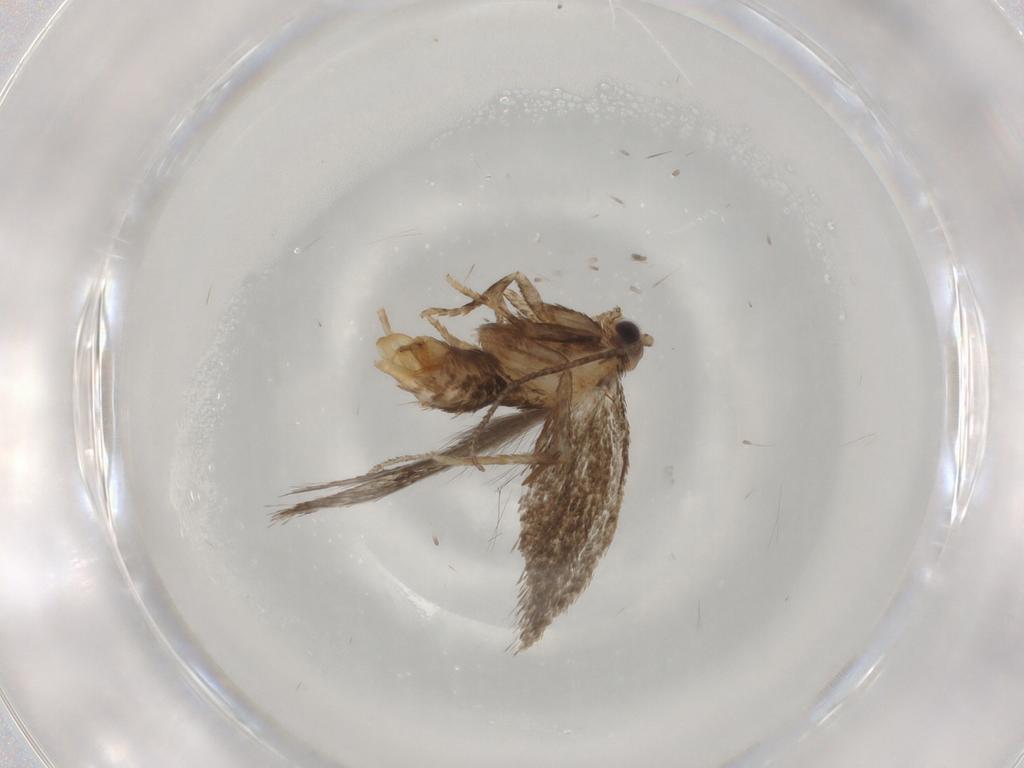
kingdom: Animalia
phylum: Arthropoda
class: Insecta
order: Lepidoptera
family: Tineidae
